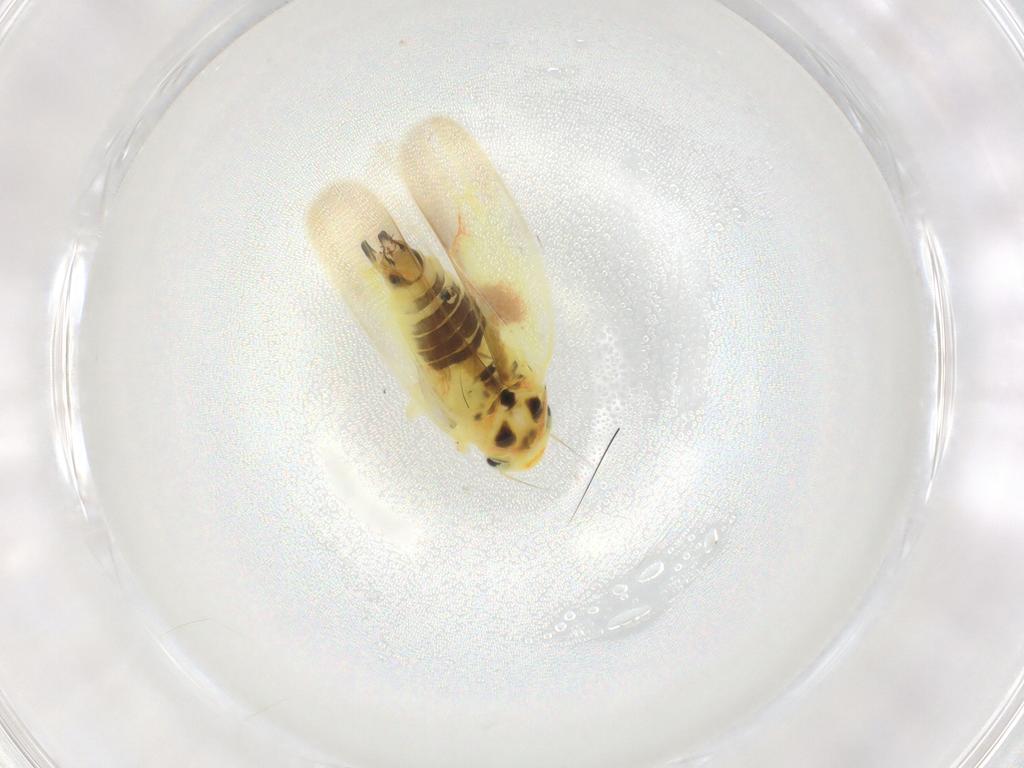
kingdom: Animalia
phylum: Arthropoda
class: Insecta
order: Hemiptera
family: Cicadellidae
